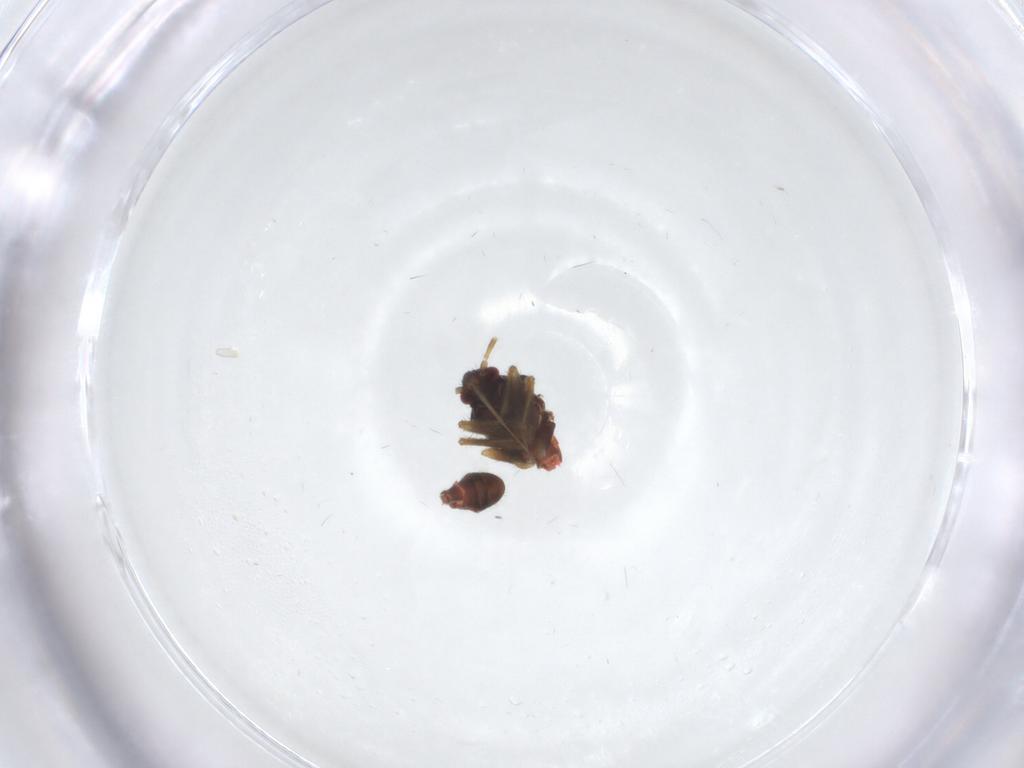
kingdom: Animalia
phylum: Arthropoda
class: Insecta
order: Hemiptera
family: Ceratocombidae
